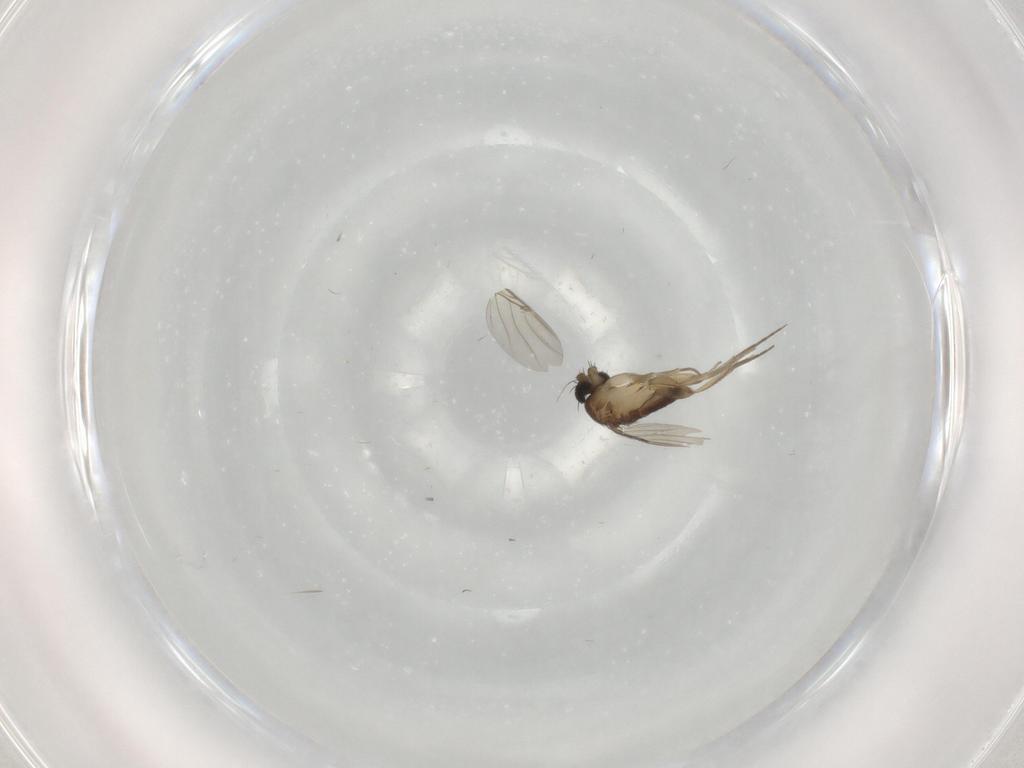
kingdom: Animalia
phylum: Arthropoda
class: Insecta
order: Diptera
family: Phoridae
